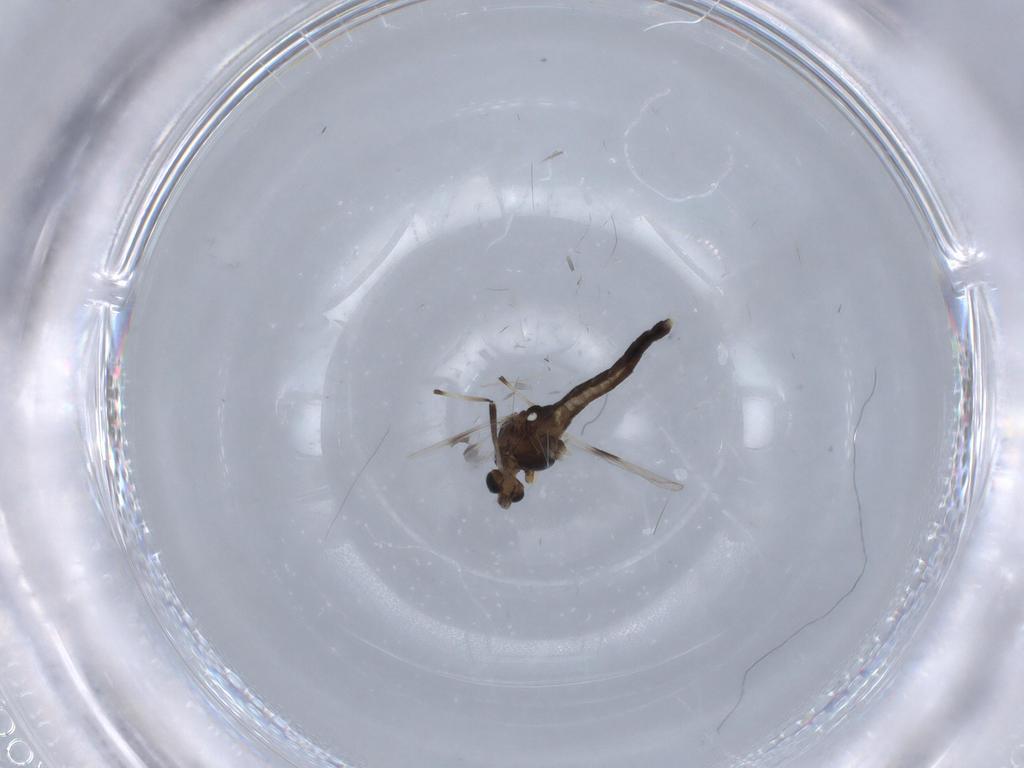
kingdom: Animalia
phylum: Arthropoda
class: Insecta
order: Diptera
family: Chironomidae
